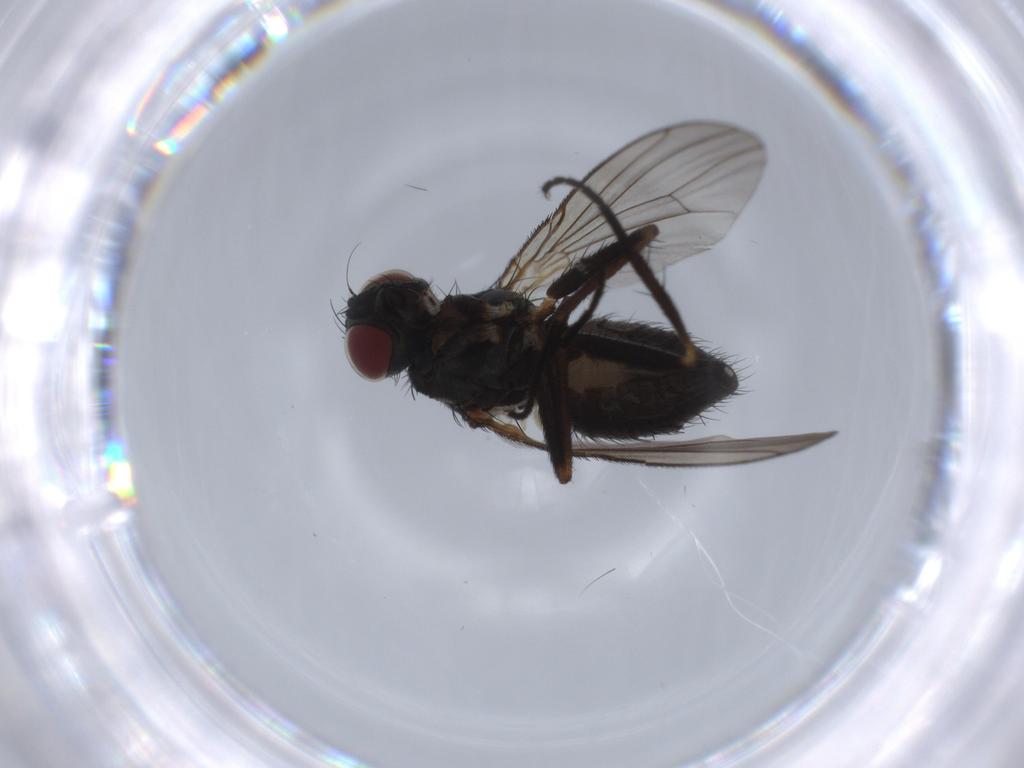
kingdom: Animalia
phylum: Arthropoda
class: Insecta
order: Diptera
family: Muscidae
